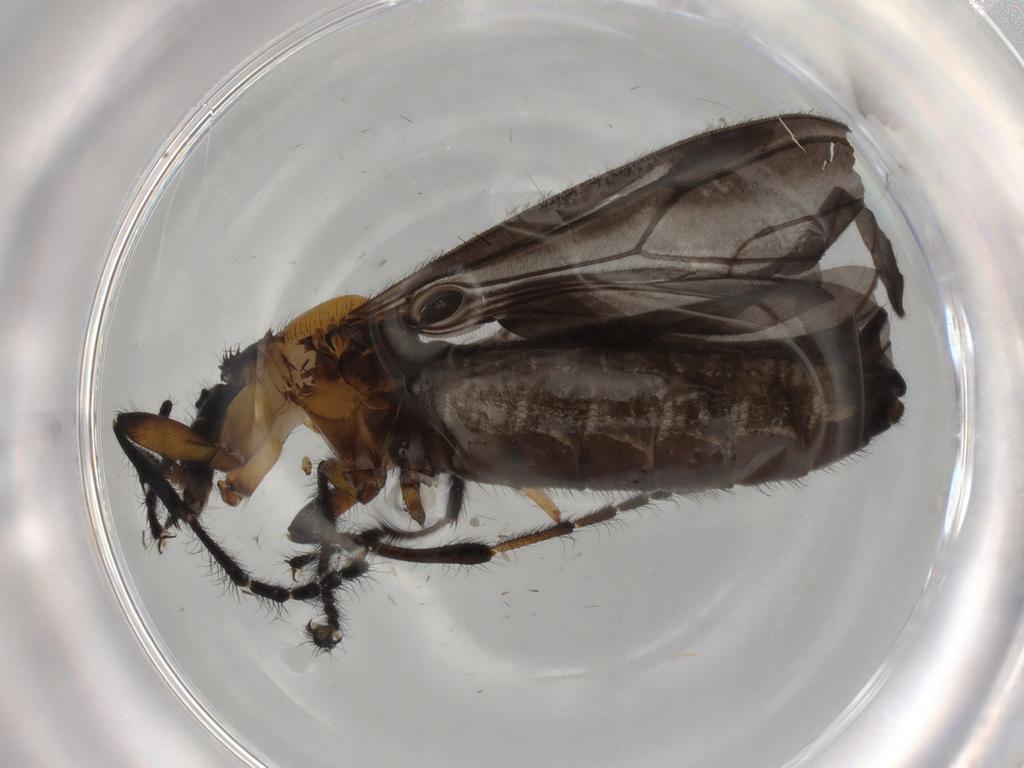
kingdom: Animalia
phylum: Arthropoda
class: Insecta
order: Diptera
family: Bibionidae
